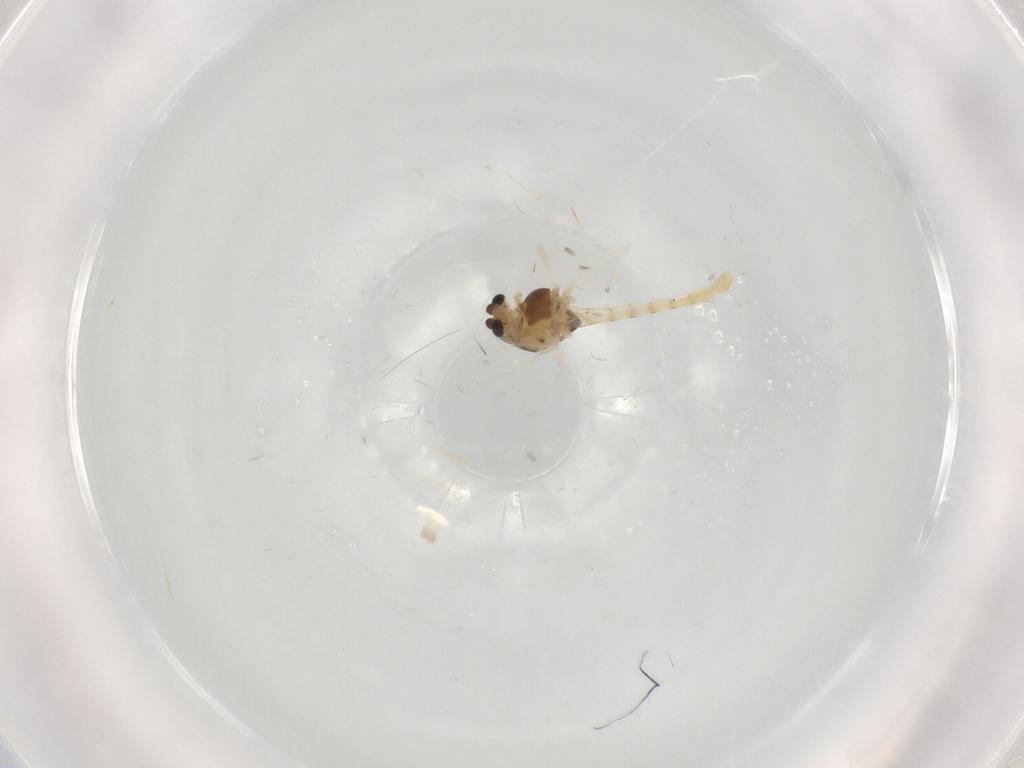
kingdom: Animalia
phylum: Arthropoda
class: Insecta
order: Diptera
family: Chironomidae
